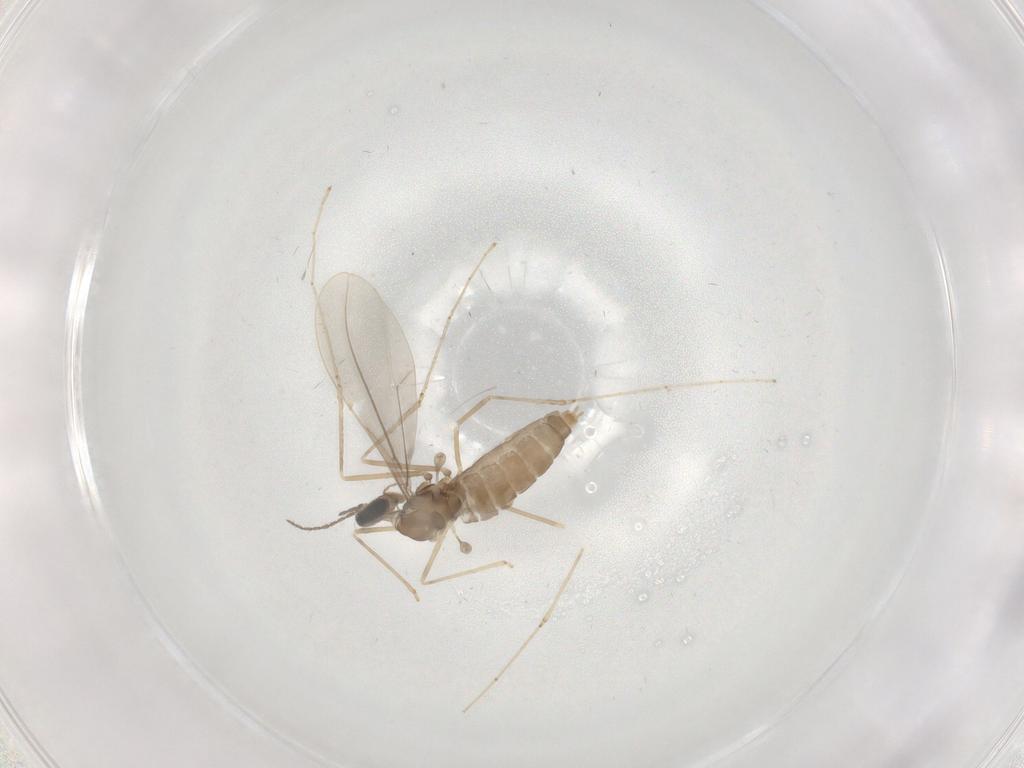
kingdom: Animalia
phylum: Arthropoda
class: Insecta
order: Diptera
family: Cecidomyiidae
